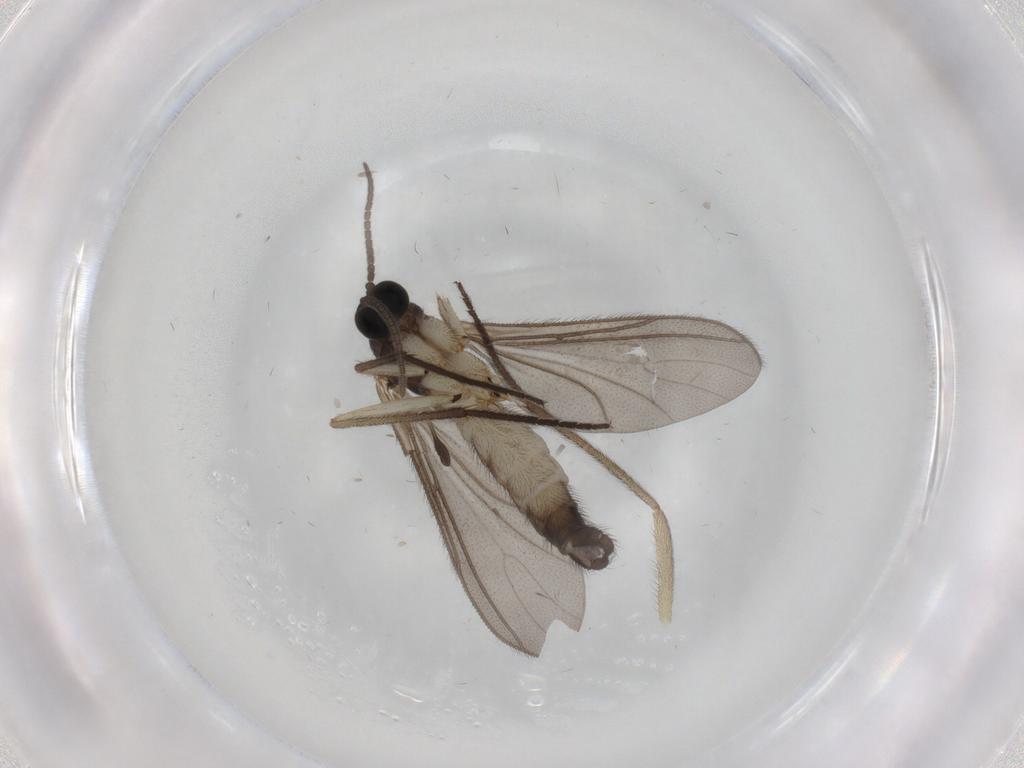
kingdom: Animalia
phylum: Arthropoda
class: Insecta
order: Diptera
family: Sciaridae
